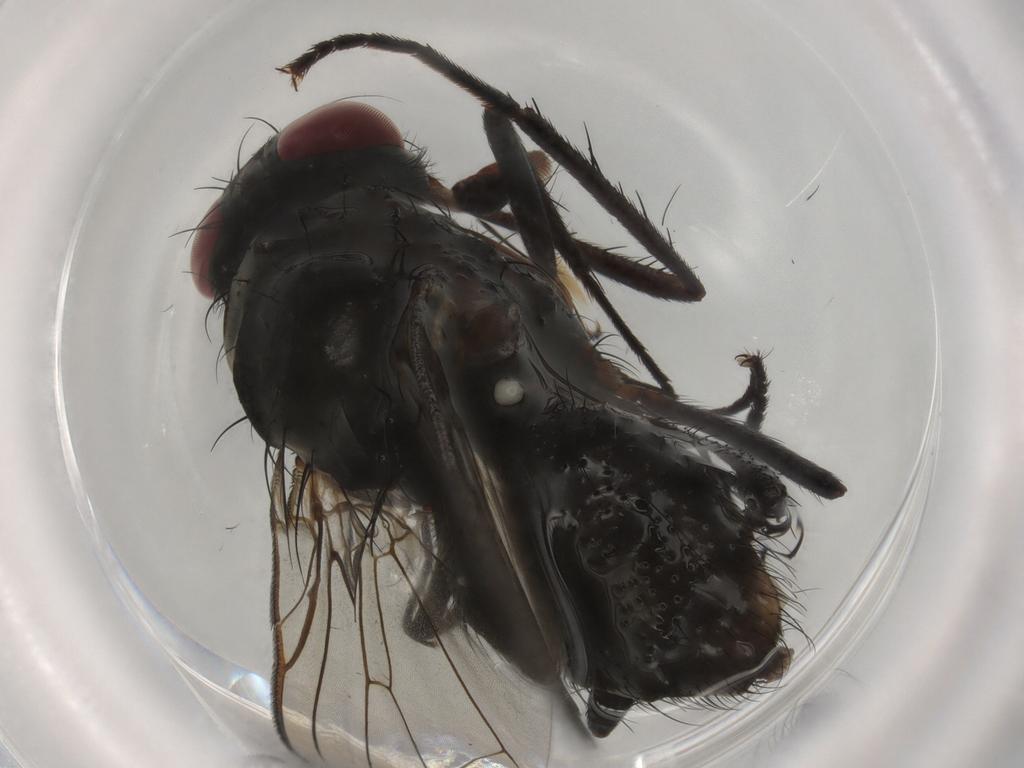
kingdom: Animalia
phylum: Arthropoda
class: Insecta
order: Diptera
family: Anthomyiidae
